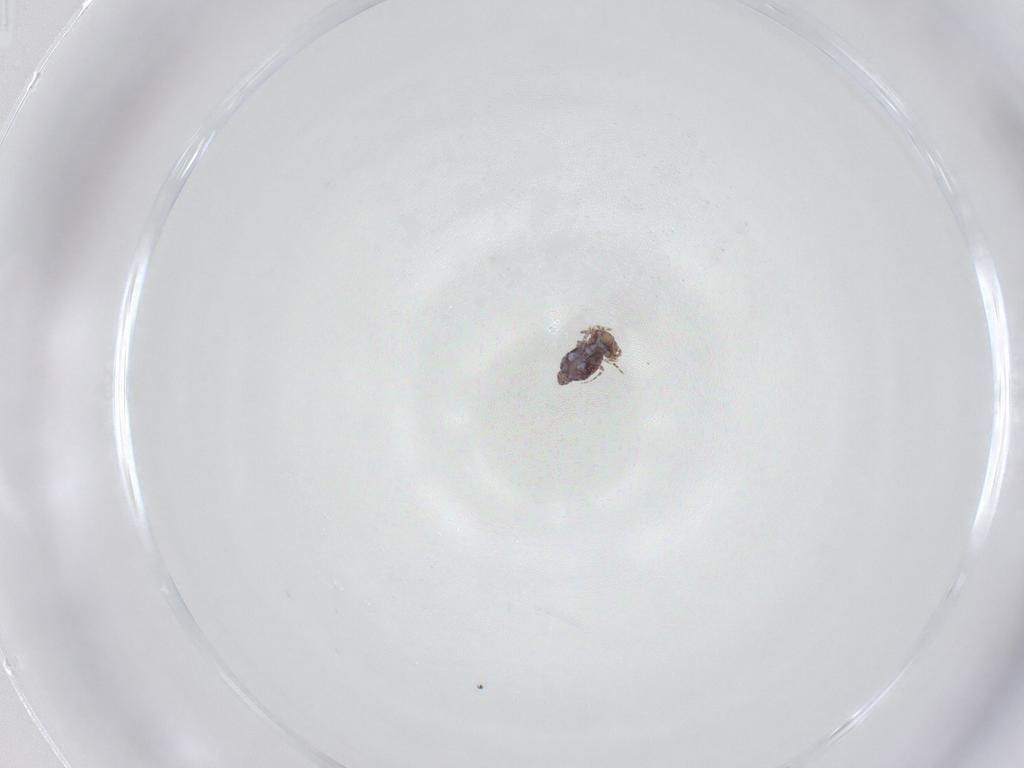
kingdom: Animalia
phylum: Arthropoda
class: Collembola
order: Symphypleona
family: Bourletiellidae
